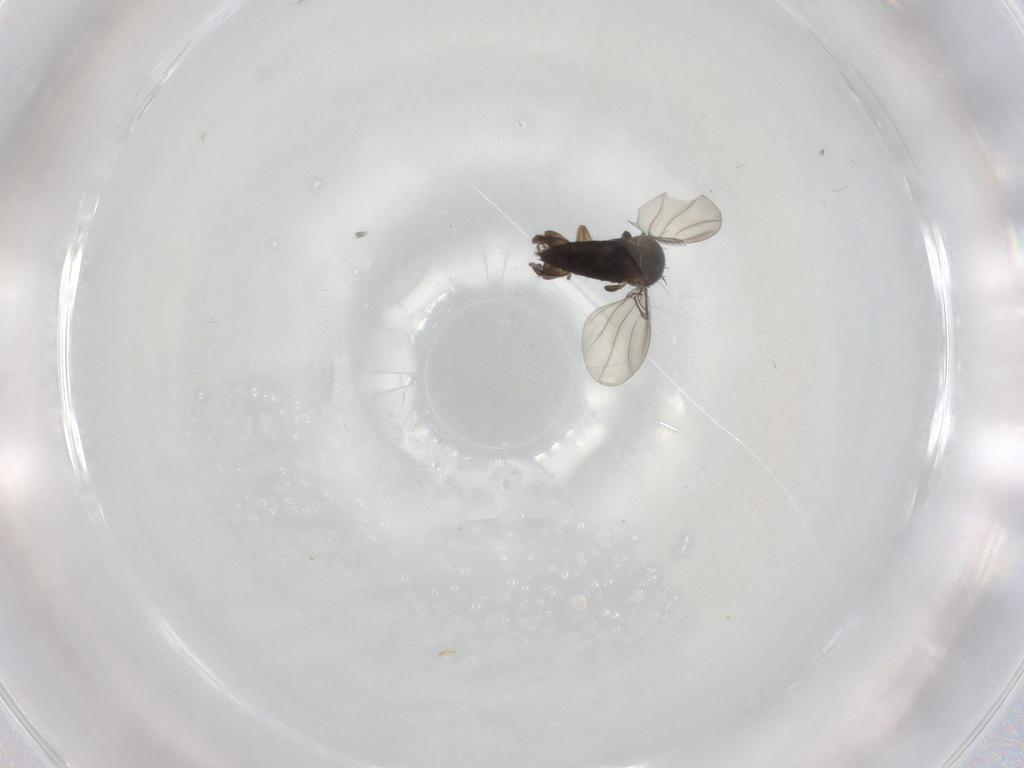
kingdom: Animalia
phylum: Arthropoda
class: Insecta
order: Diptera
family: Phoridae
